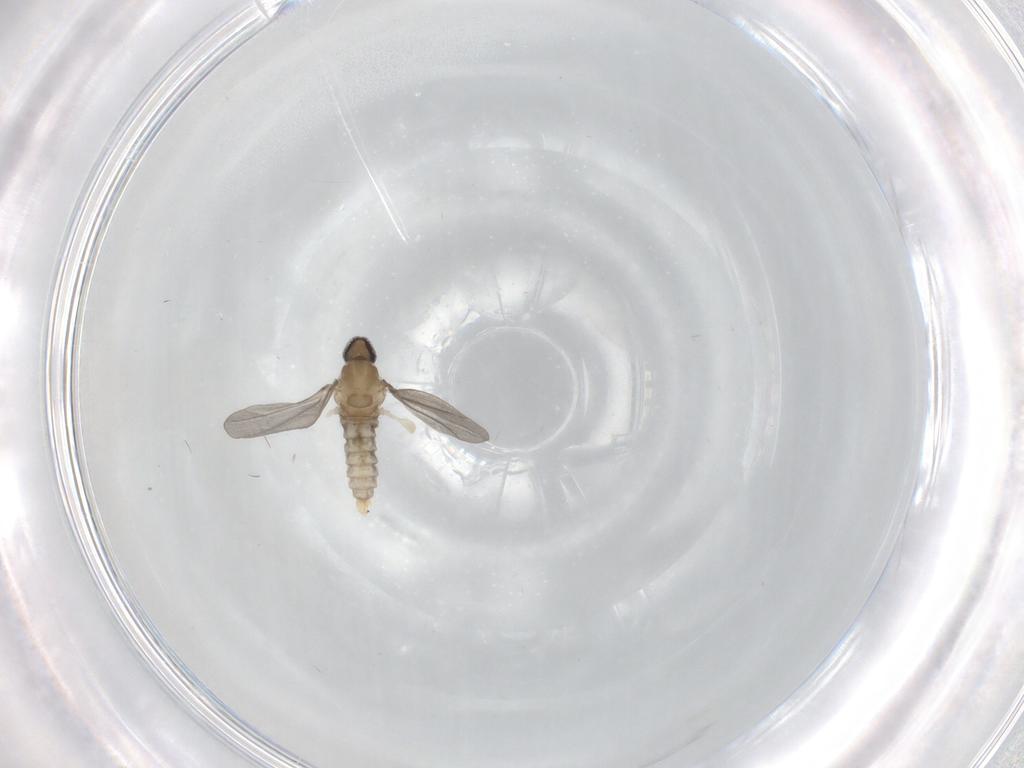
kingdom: Animalia
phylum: Arthropoda
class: Insecta
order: Diptera
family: Cecidomyiidae
